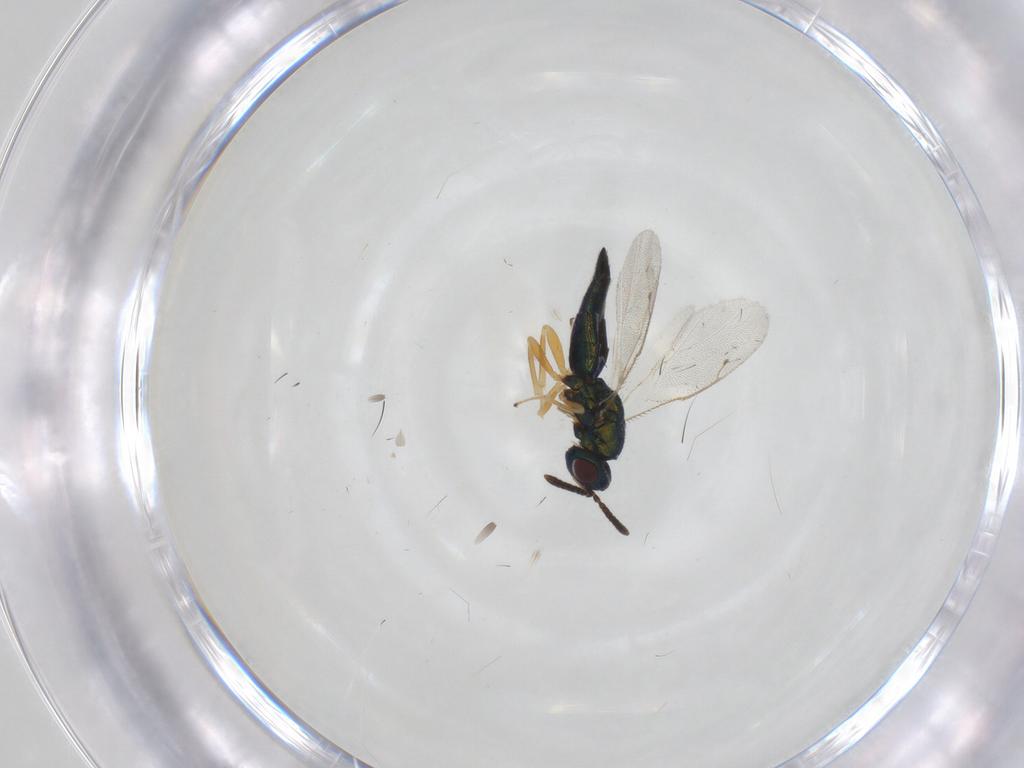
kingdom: Animalia
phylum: Arthropoda
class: Insecta
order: Hymenoptera
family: Pteromalidae
